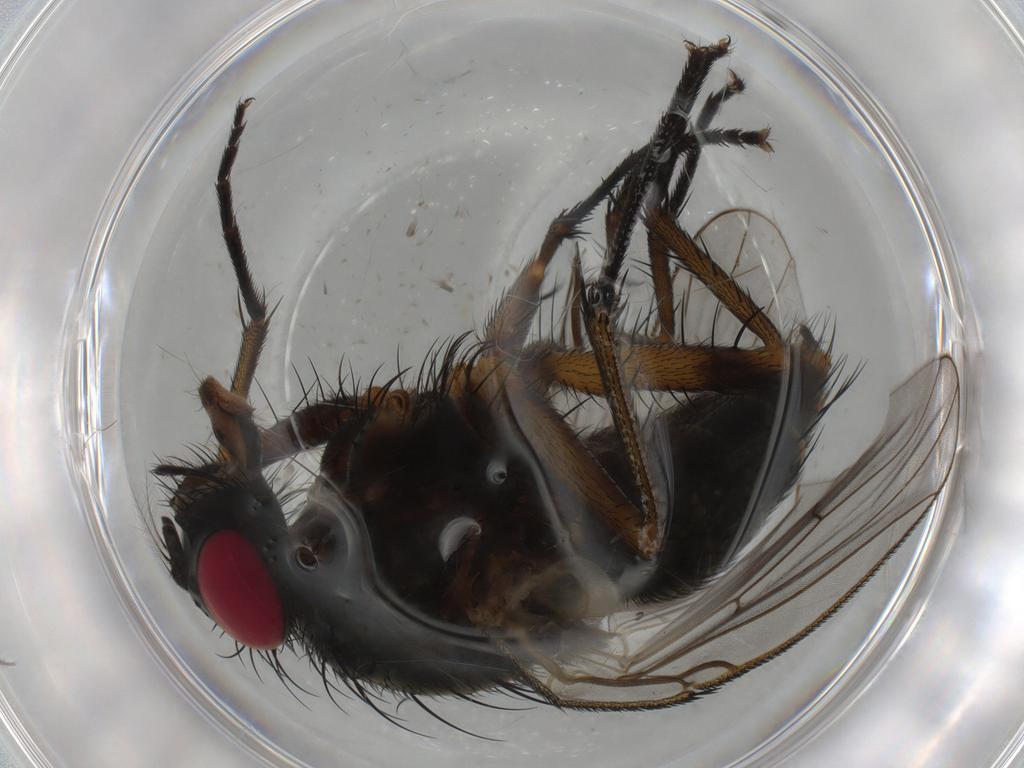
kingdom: Animalia
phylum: Arthropoda
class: Insecta
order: Diptera
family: Muscidae
